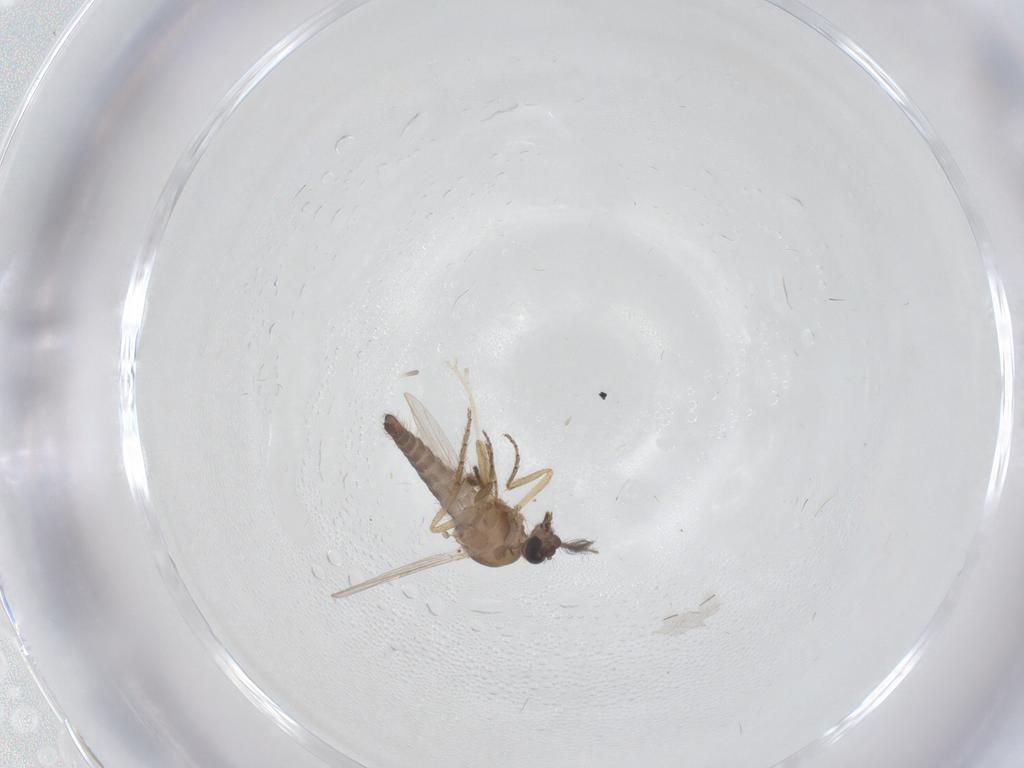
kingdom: Animalia
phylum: Arthropoda
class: Insecta
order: Diptera
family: Ceratopogonidae
